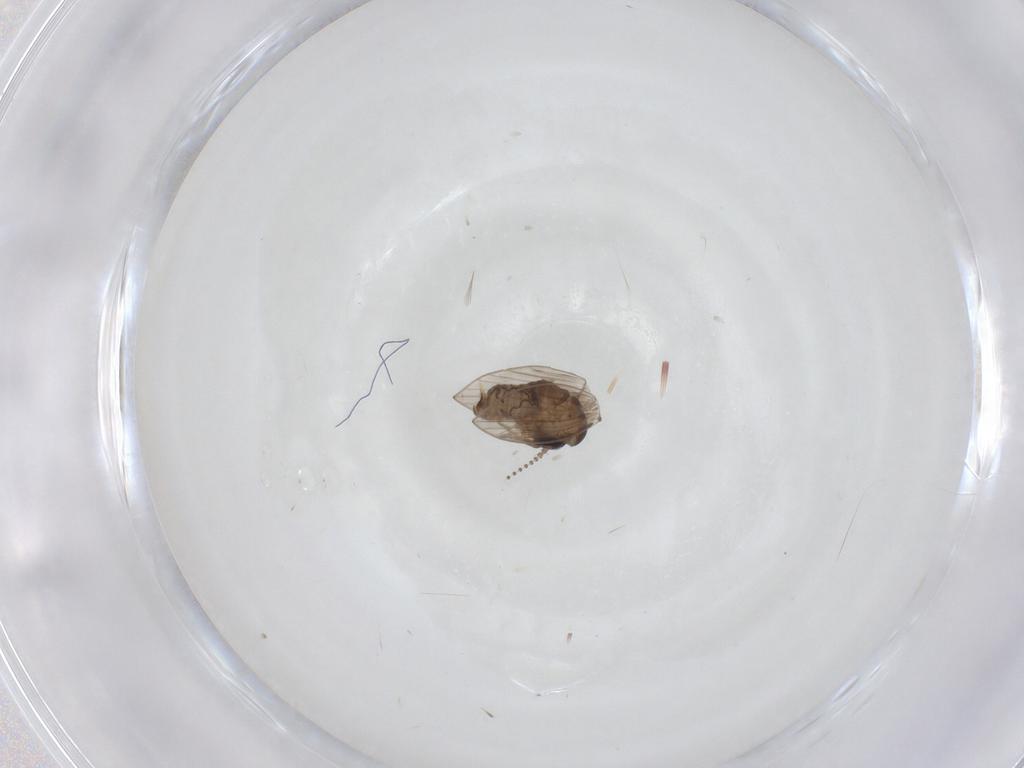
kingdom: Animalia
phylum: Arthropoda
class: Insecta
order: Diptera
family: Psychodidae
